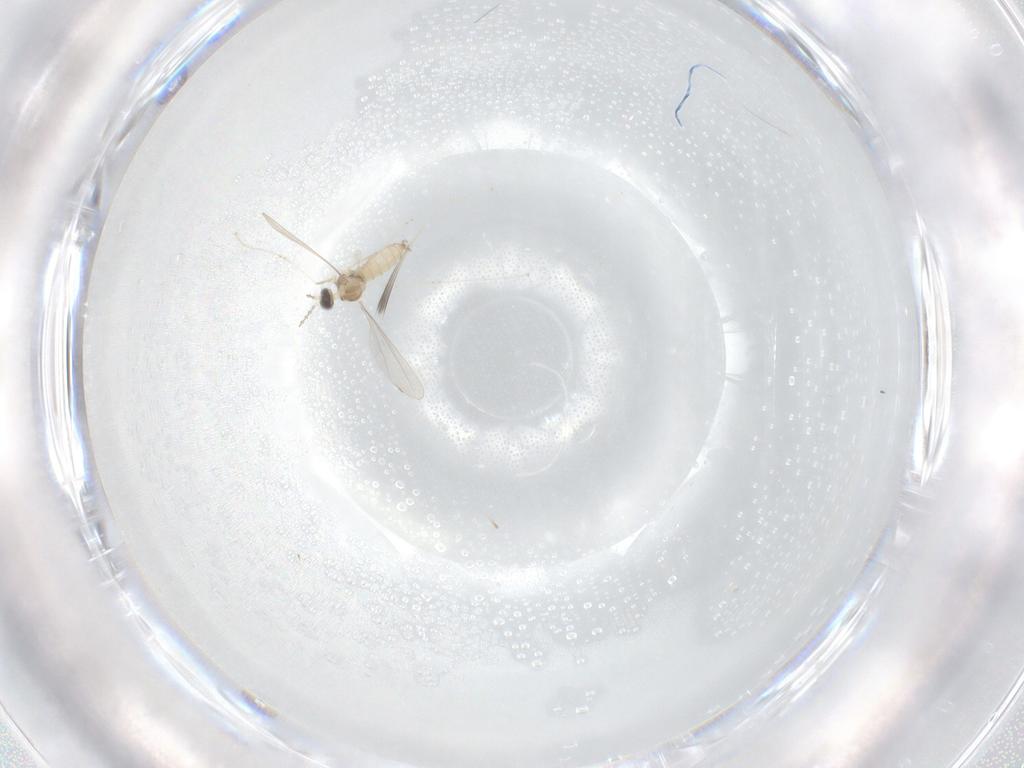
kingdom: Animalia
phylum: Arthropoda
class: Insecta
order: Diptera
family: Cecidomyiidae
